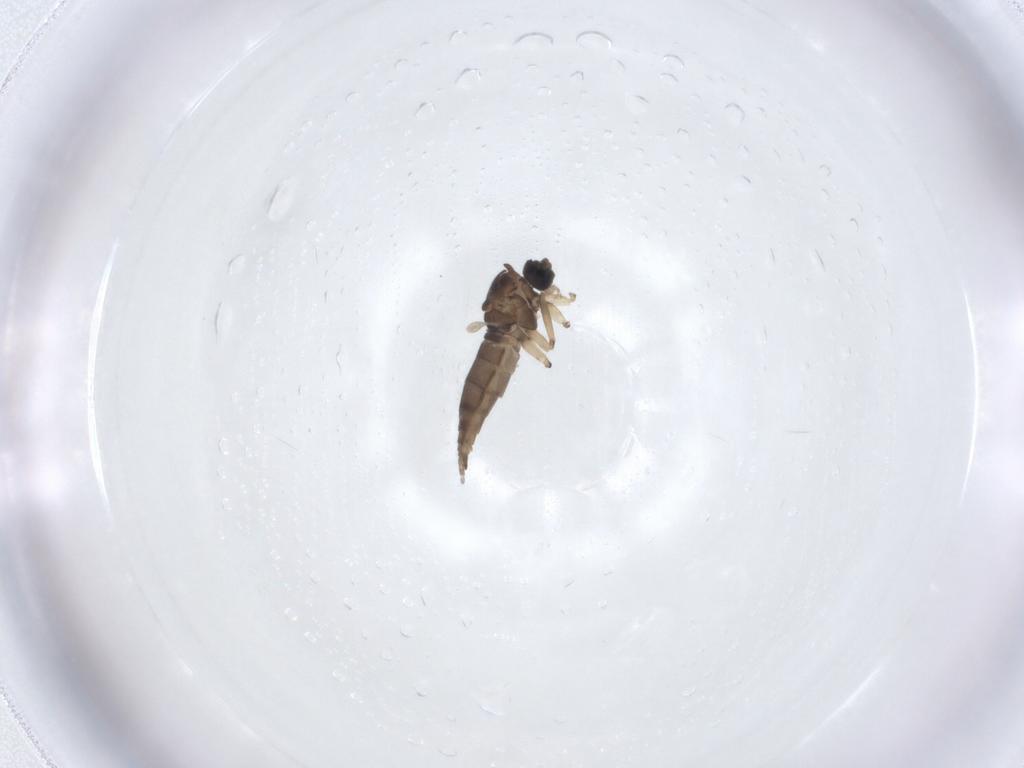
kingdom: Animalia
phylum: Arthropoda
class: Insecta
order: Diptera
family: Sciaridae
